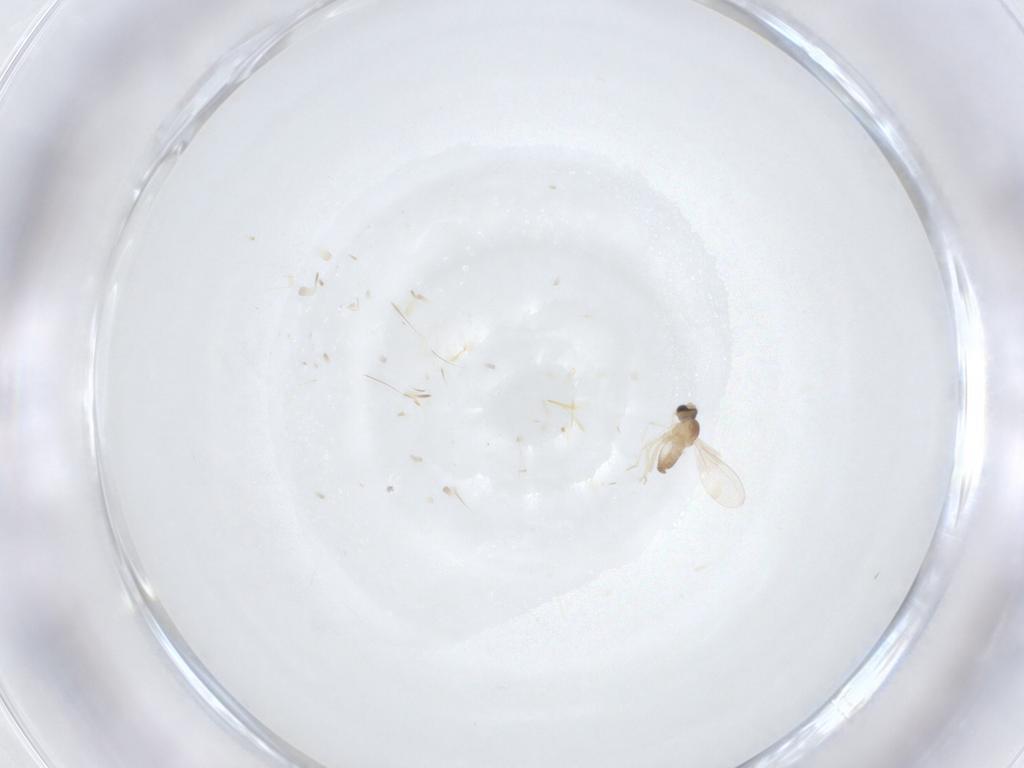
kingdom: Animalia
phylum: Arthropoda
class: Insecta
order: Diptera
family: Cecidomyiidae
